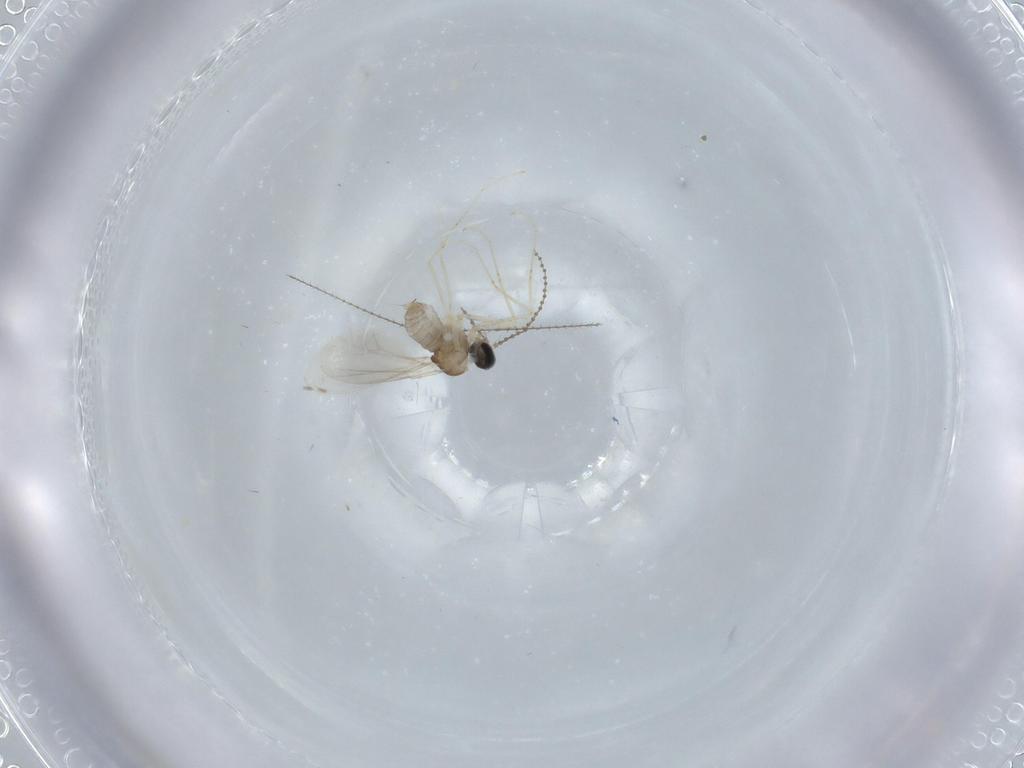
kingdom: Animalia
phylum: Arthropoda
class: Insecta
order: Diptera
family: Cecidomyiidae
